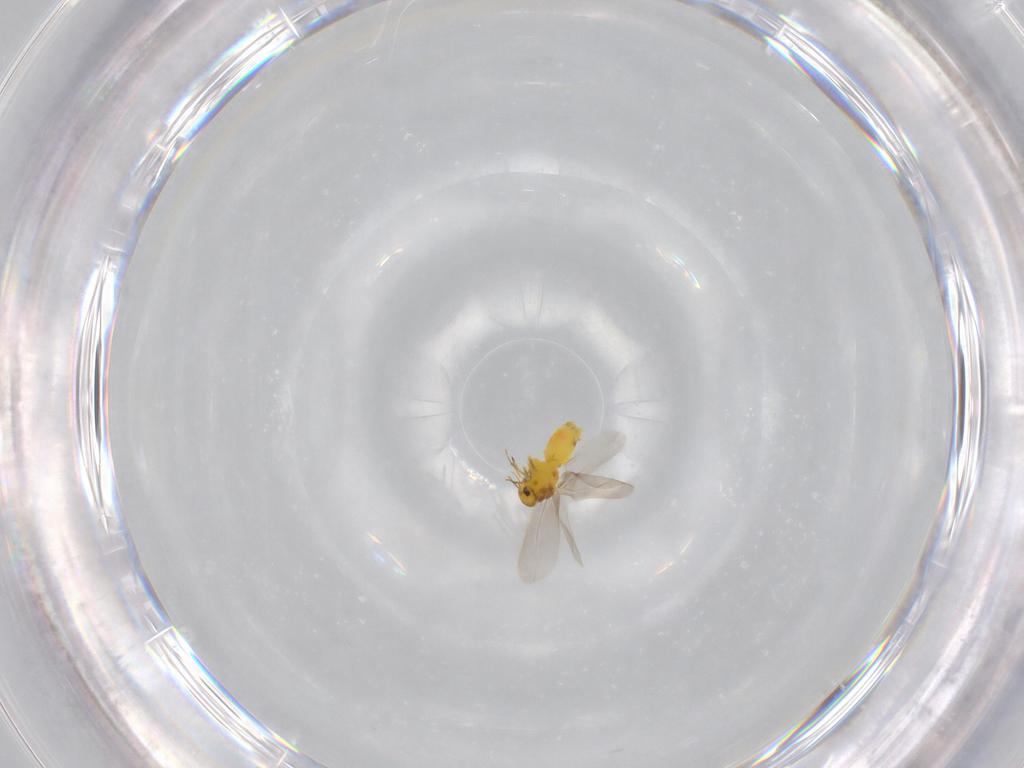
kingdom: Animalia
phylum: Arthropoda
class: Insecta
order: Hemiptera
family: Aleyrodidae
